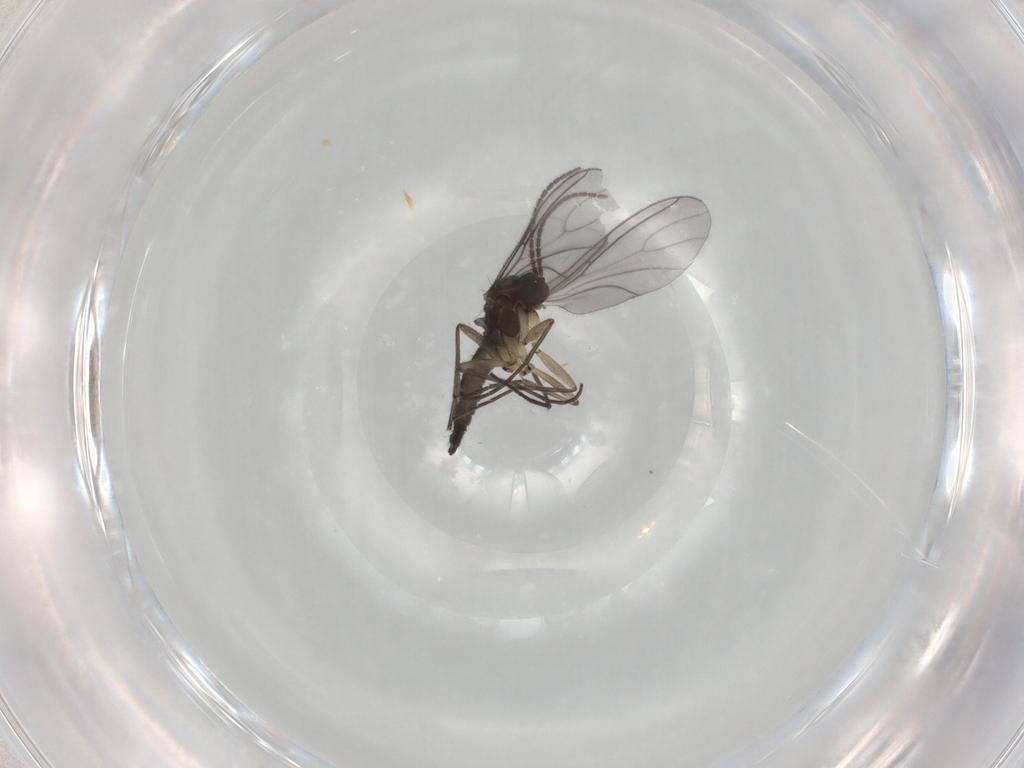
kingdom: Animalia
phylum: Arthropoda
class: Insecta
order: Diptera
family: Sciaridae
